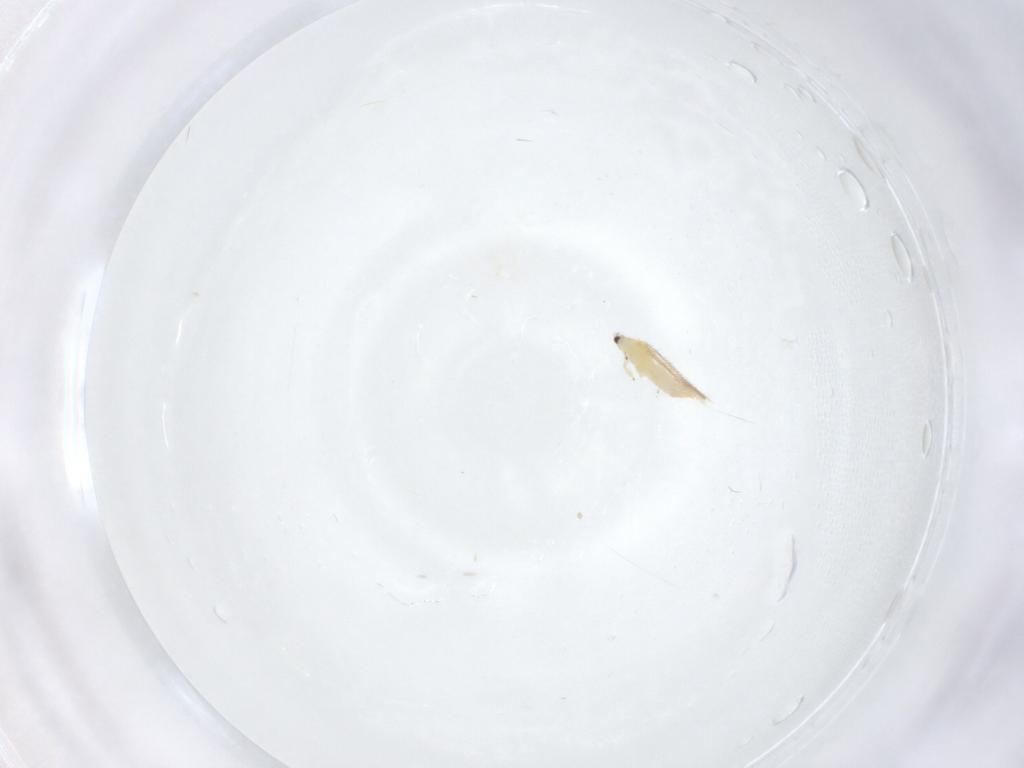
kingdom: Animalia
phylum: Arthropoda
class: Insecta
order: Thysanoptera
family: Thripidae
